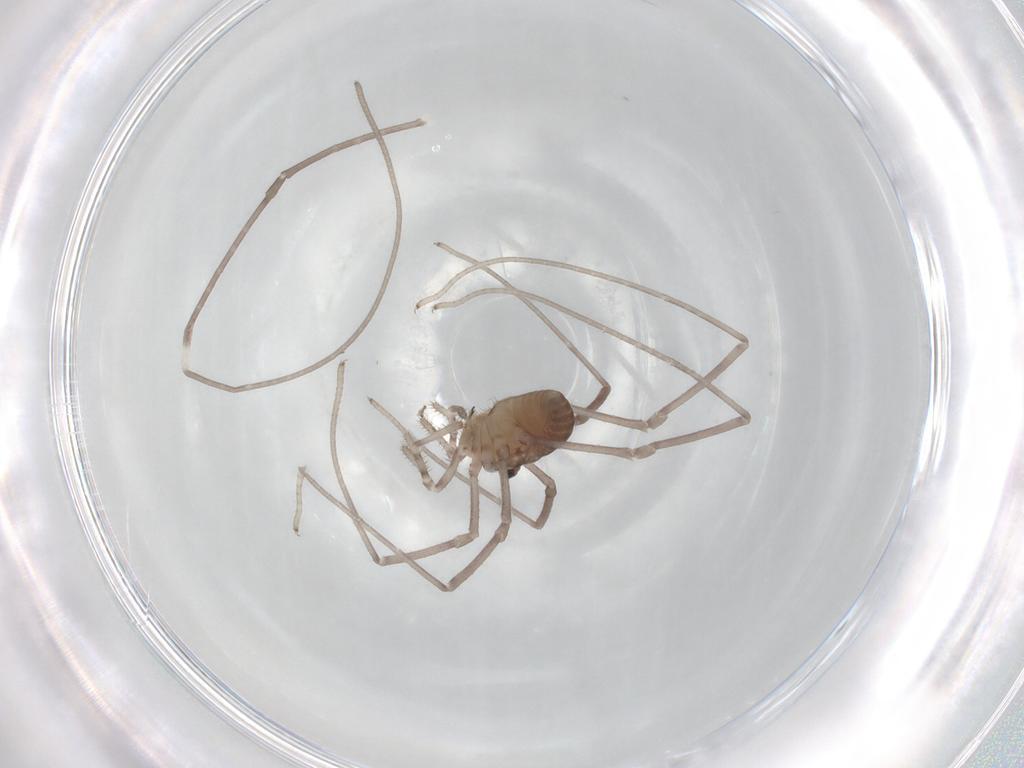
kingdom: Animalia
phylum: Arthropoda
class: Arachnida
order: Opiliones
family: Sclerosomatidae
